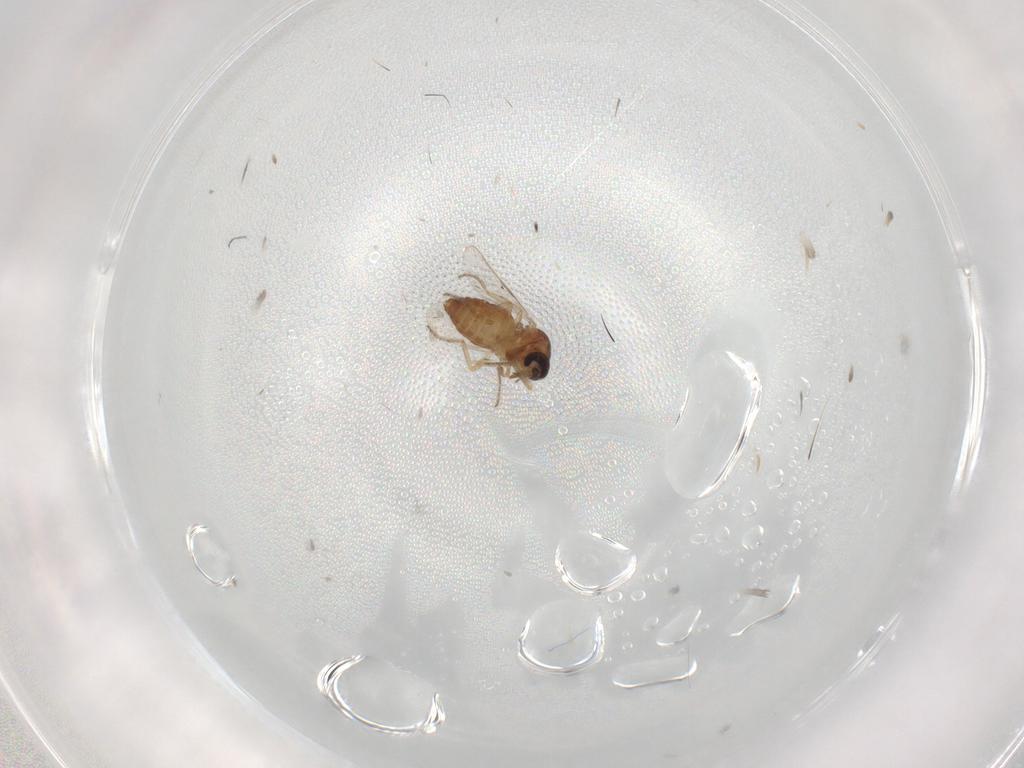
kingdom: Animalia
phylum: Arthropoda
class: Insecta
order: Diptera
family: Ceratopogonidae
